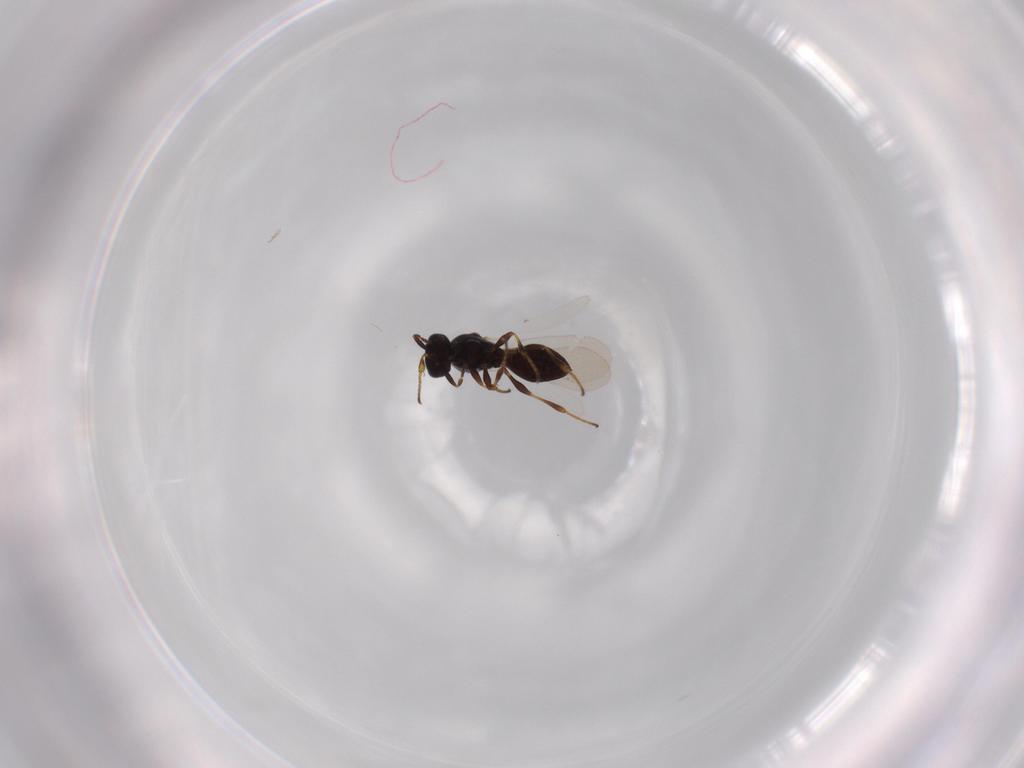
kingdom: Animalia
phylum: Arthropoda
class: Insecta
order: Hymenoptera
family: Platygastridae
